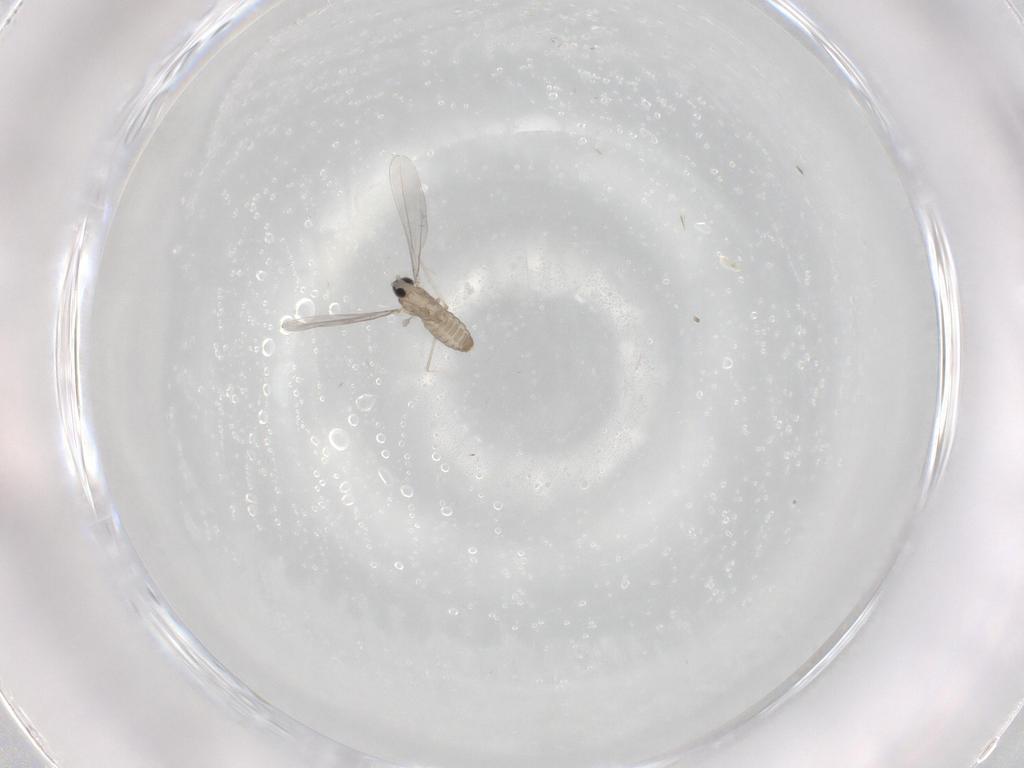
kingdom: Animalia
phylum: Arthropoda
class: Insecta
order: Diptera
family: Cecidomyiidae
